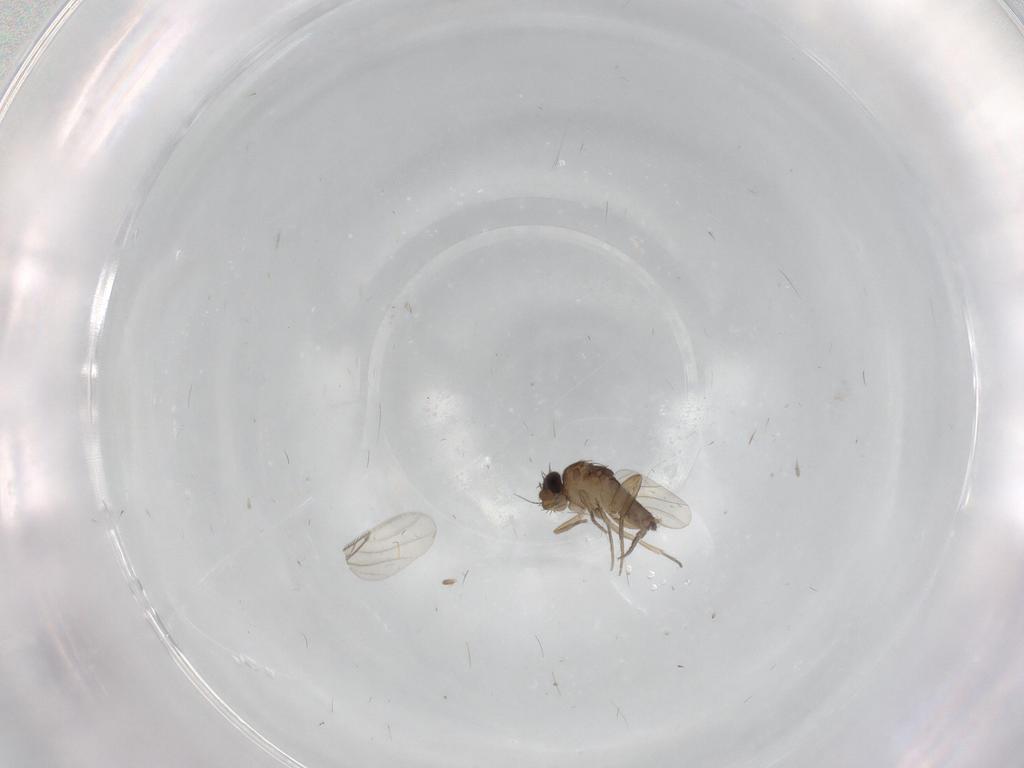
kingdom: Animalia
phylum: Arthropoda
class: Insecta
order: Diptera
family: Phoridae
